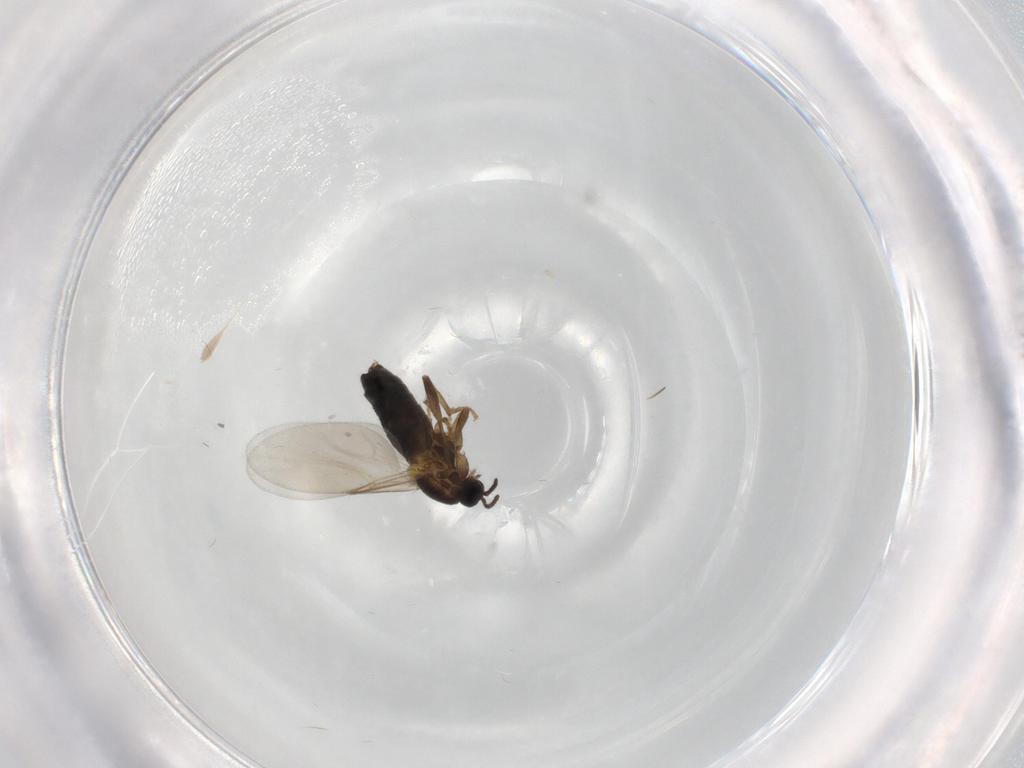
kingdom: Animalia
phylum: Arthropoda
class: Insecta
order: Diptera
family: Scatopsidae
